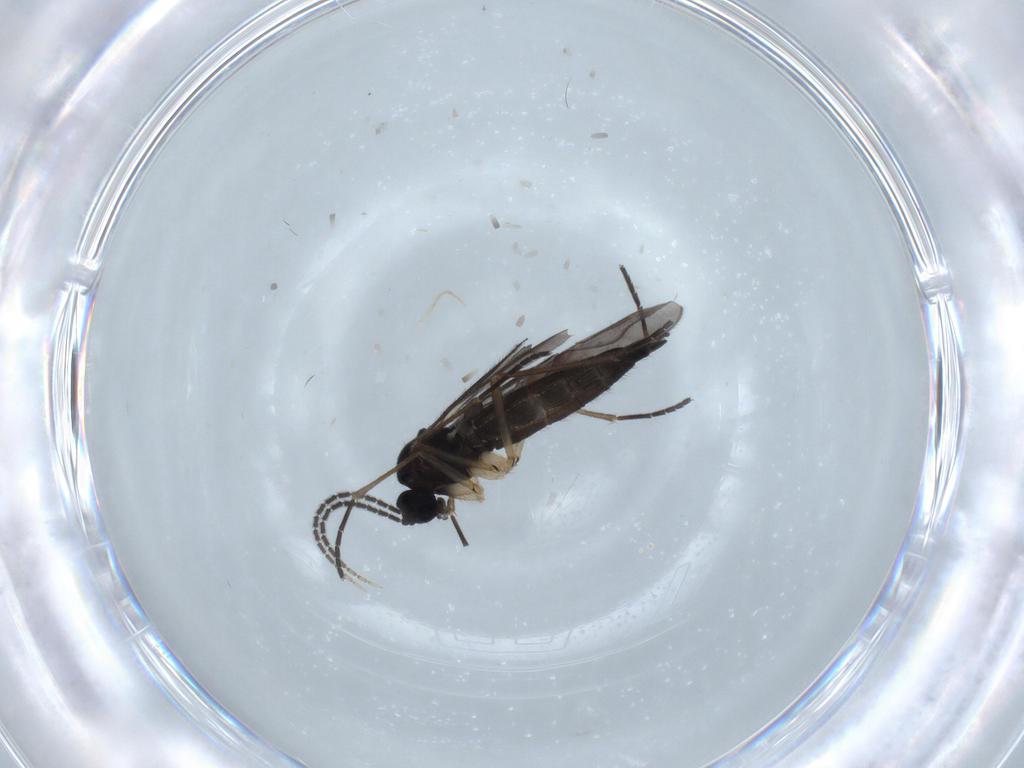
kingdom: Animalia
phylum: Arthropoda
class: Insecta
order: Diptera
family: Sciaridae
